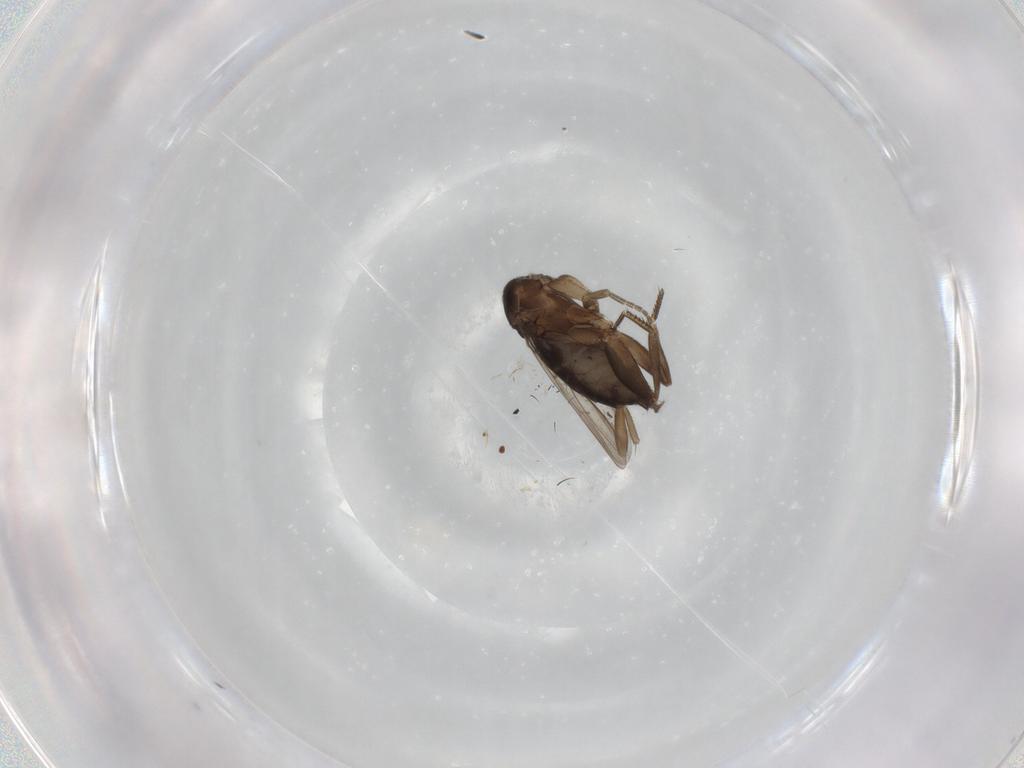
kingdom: Animalia
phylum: Arthropoda
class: Insecta
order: Diptera
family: Phoridae
